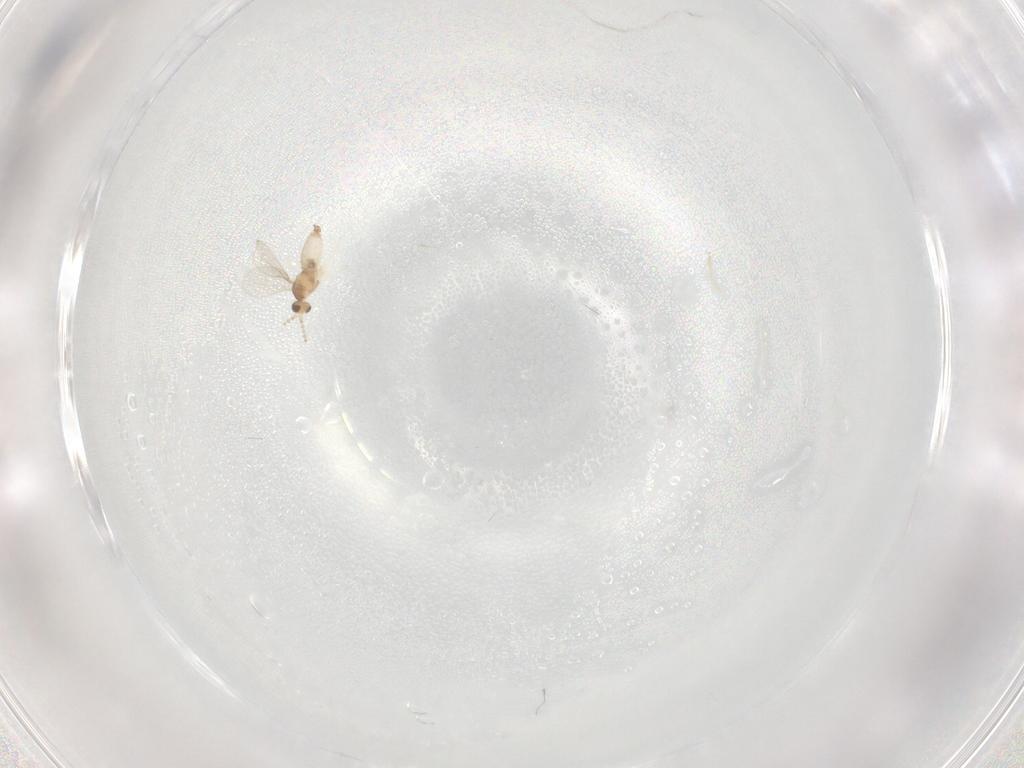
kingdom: Animalia
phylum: Arthropoda
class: Insecta
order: Diptera
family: Cecidomyiidae
